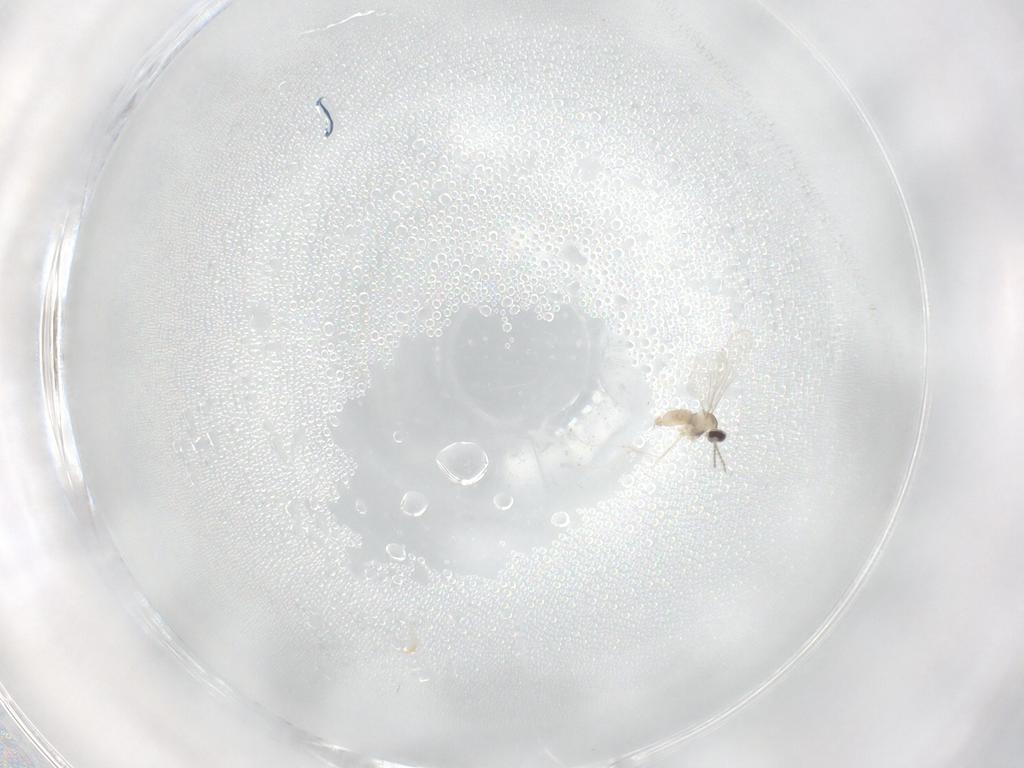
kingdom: Animalia
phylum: Arthropoda
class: Insecta
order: Diptera
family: Cecidomyiidae
